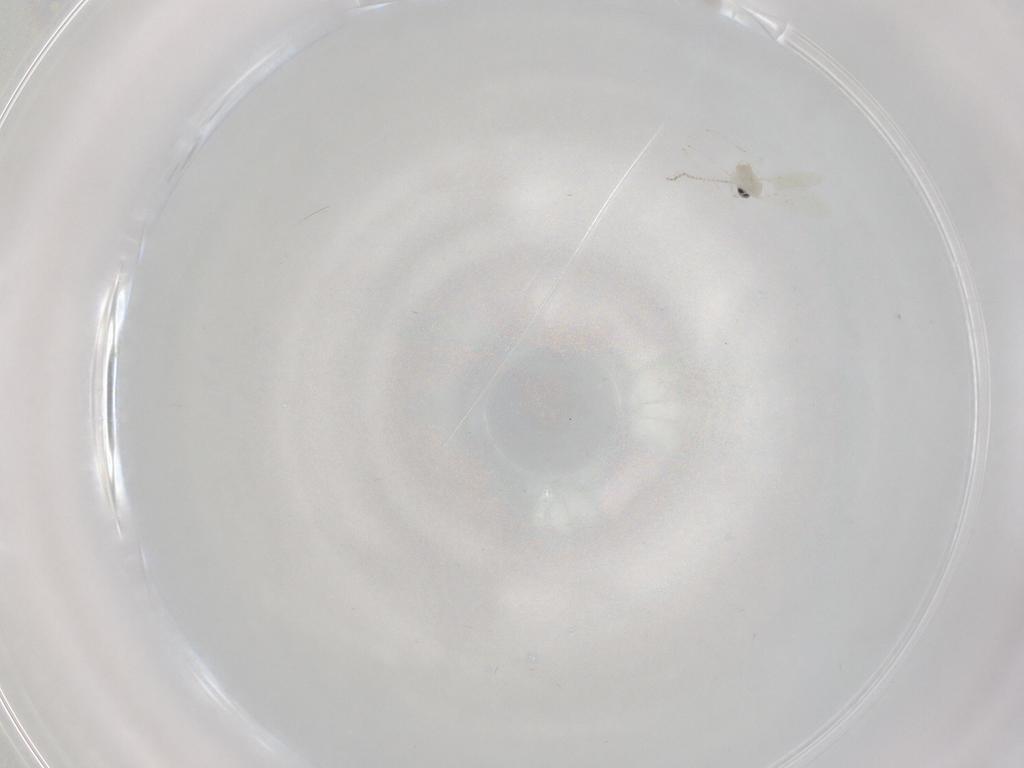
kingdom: Animalia
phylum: Arthropoda
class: Insecta
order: Diptera
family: Cecidomyiidae
